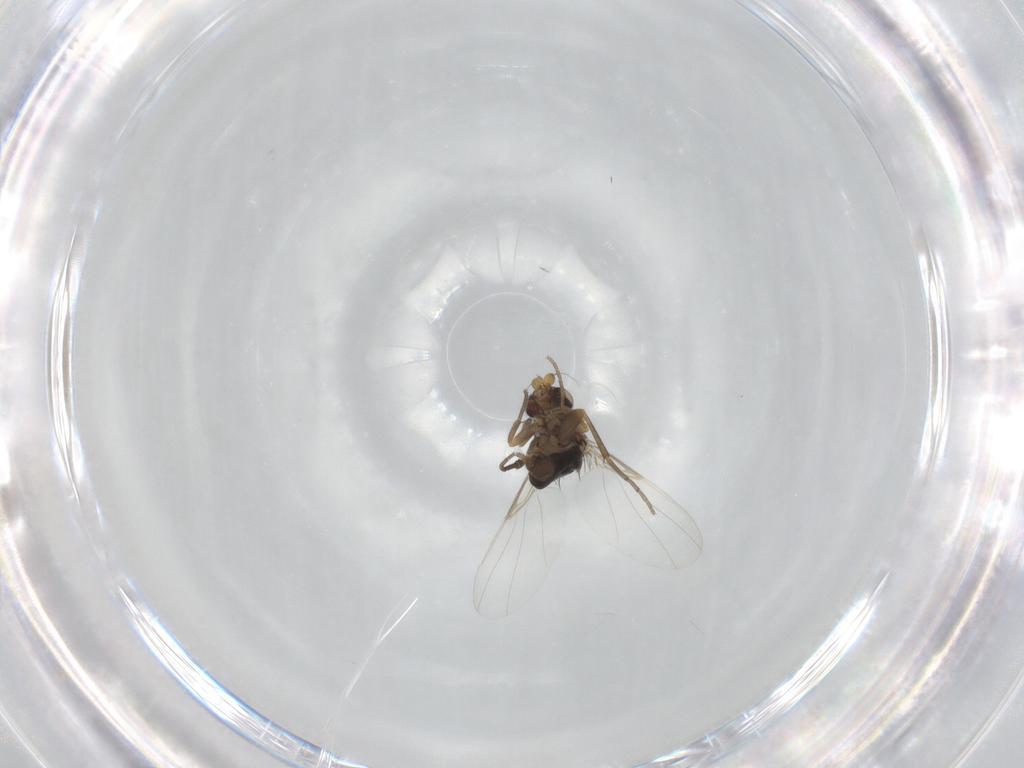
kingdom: Animalia
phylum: Arthropoda
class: Insecta
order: Diptera
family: Phoridae
